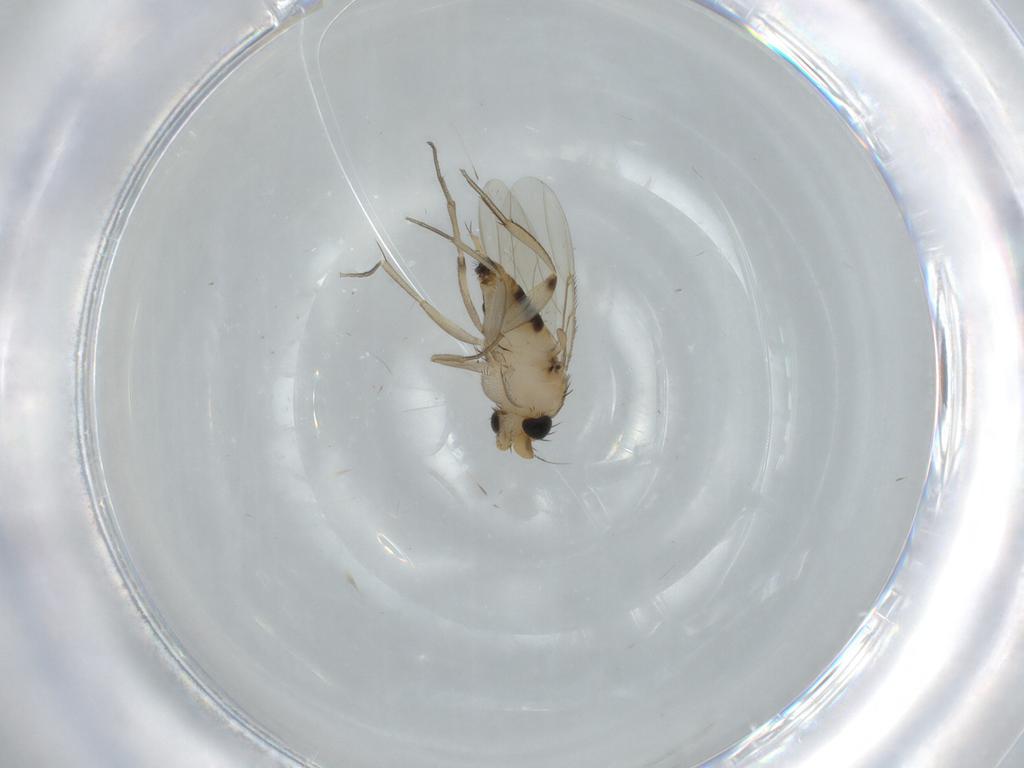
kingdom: Animalia
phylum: Arthropoda
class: Insecta
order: Diptera
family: Phoridae
